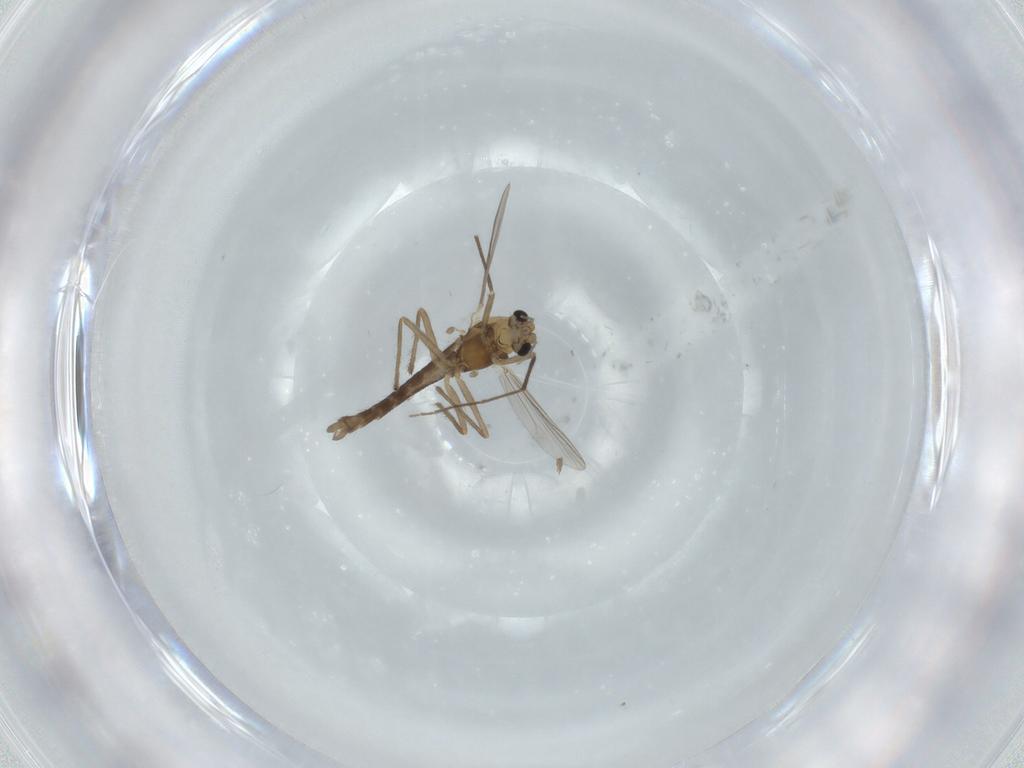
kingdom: Animalia
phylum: Arthropoda
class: Insecta
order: Diptera
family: Chironomidae
